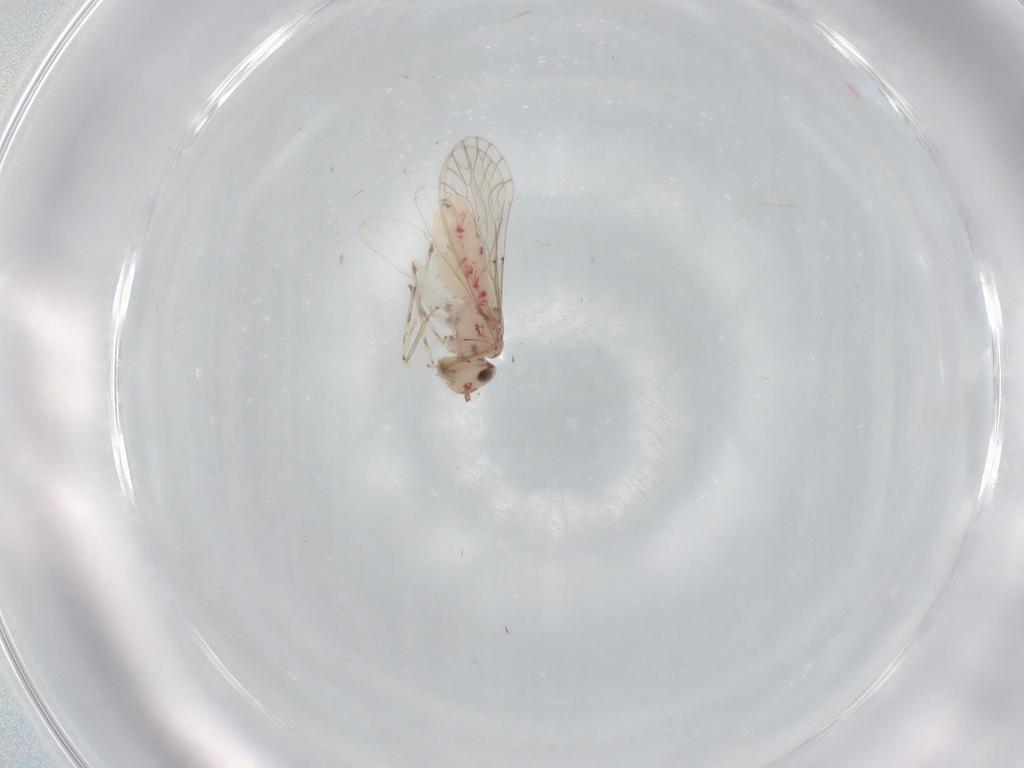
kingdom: Animalia
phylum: Arthropoda
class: Insecta
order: Psocodea
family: Caeciliusidae
